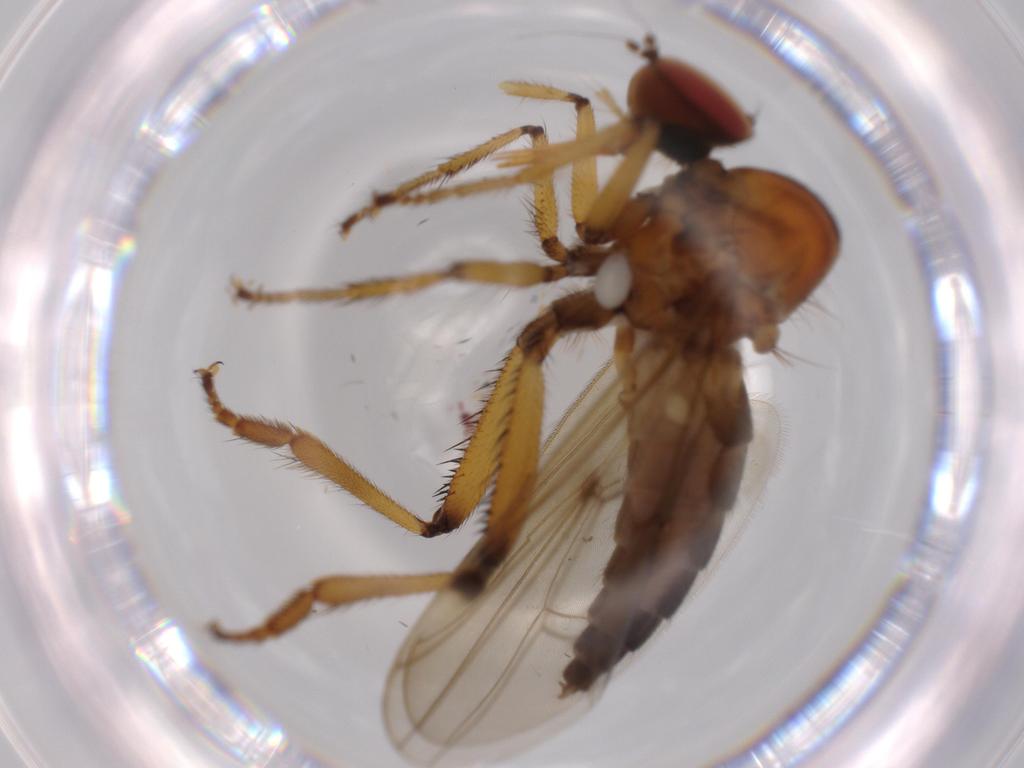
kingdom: Animalia
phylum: Arthropoda
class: Insecta
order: Diptera
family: Hybotidae
